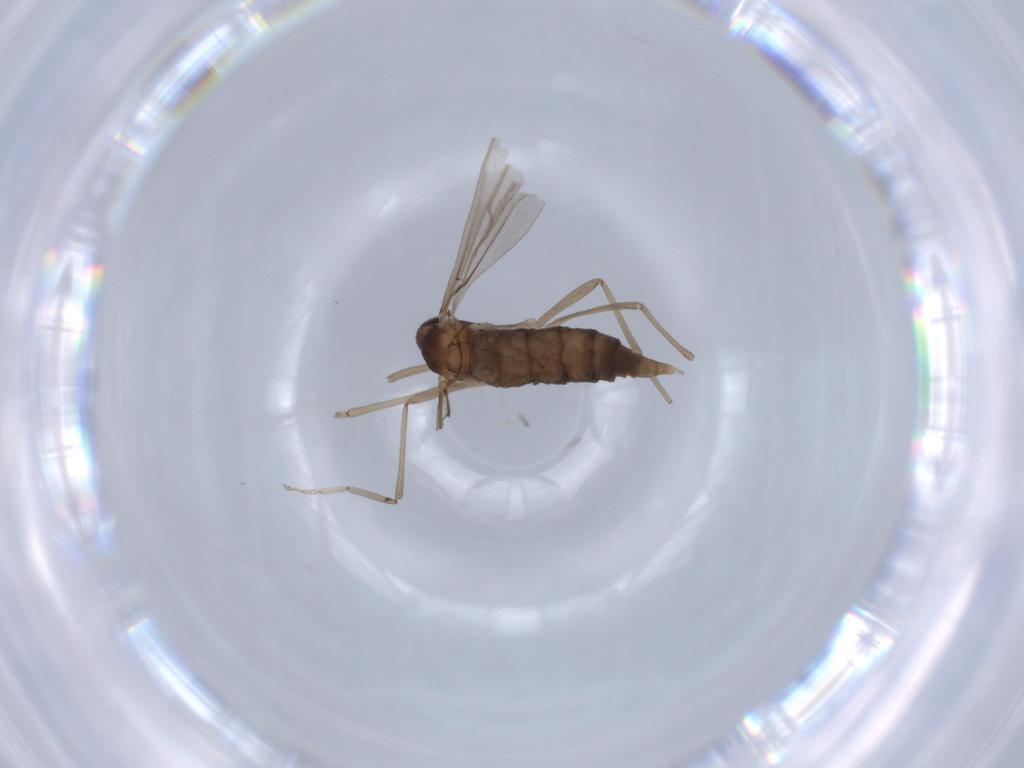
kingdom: Animalia
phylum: Arthropoda
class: Insecta
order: Diptera
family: Cecidomyiidae
